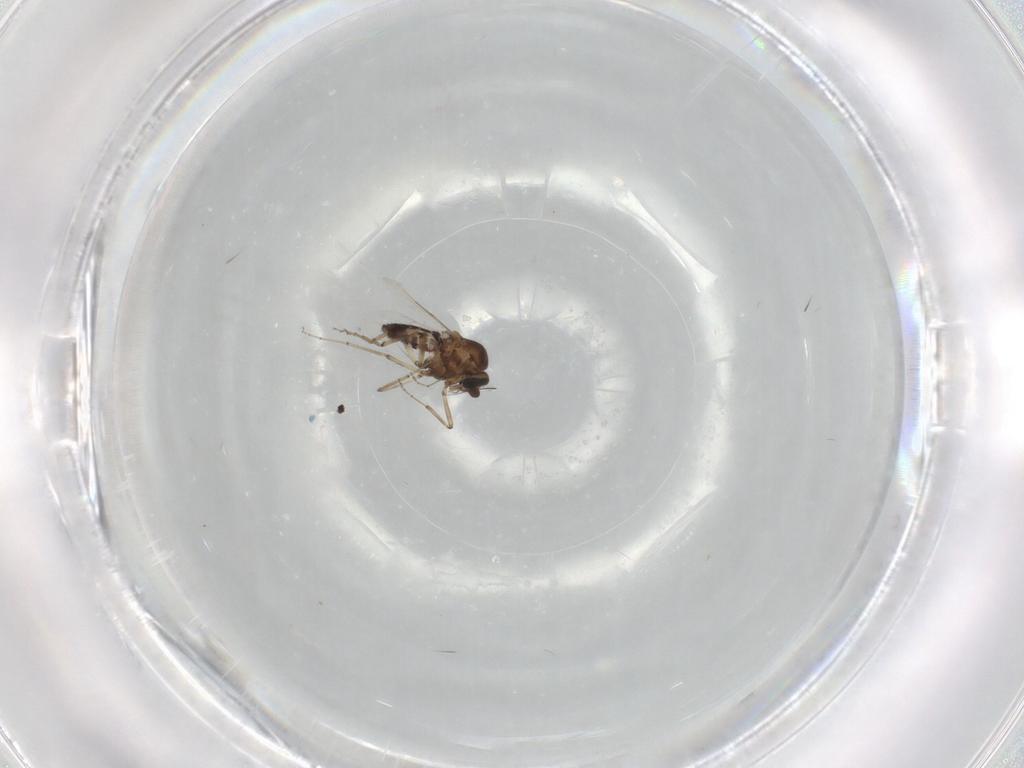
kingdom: Animalia
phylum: Arthropoda
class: Insecta
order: Diptera
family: Ceratopogonidae
